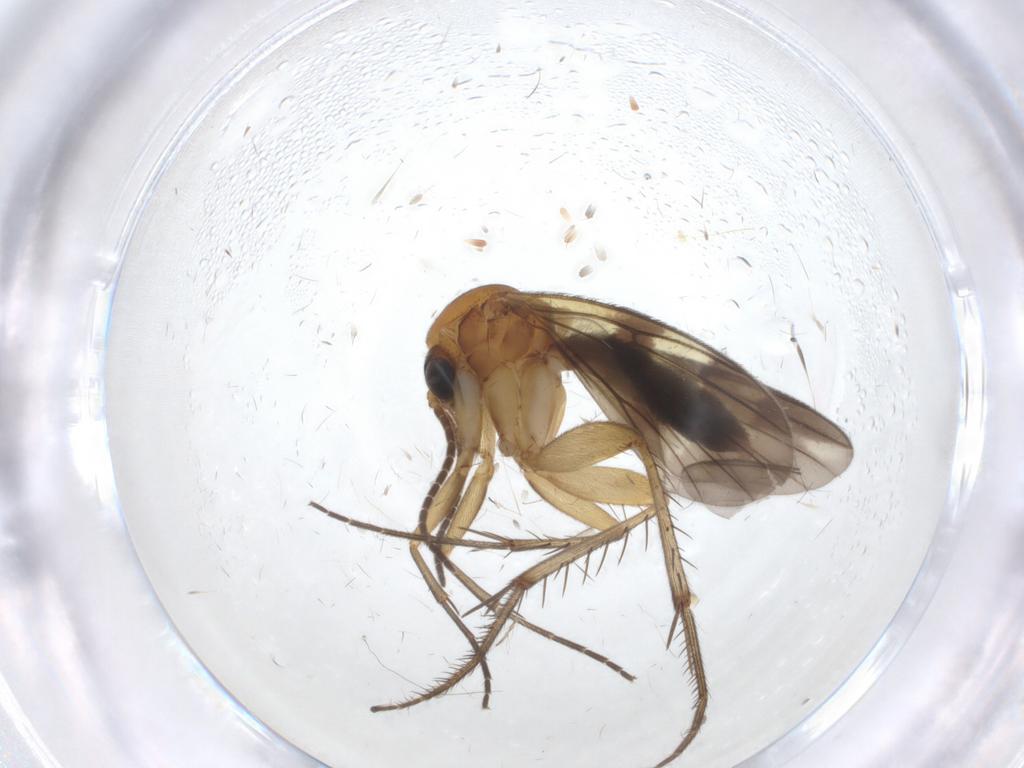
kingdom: Animalia
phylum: Arthropoda
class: Insecta
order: Diptera
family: Mycetophilidae
